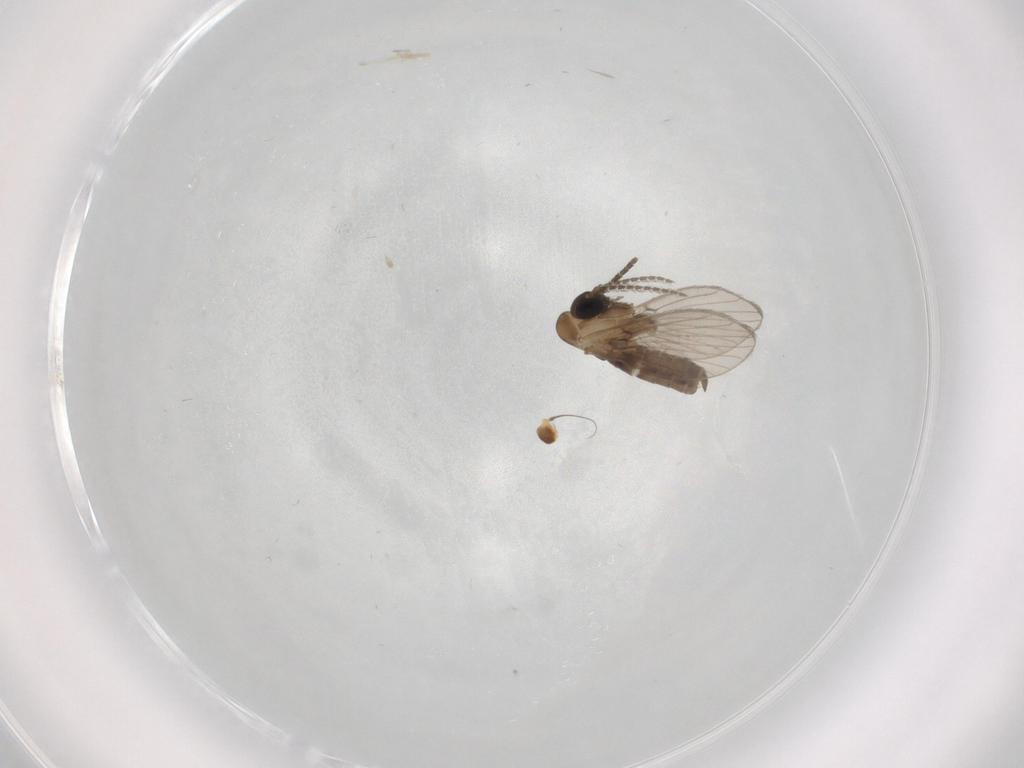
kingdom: Animalia
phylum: Arthropoda
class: Insecta
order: Diptera
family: Tephritidae
